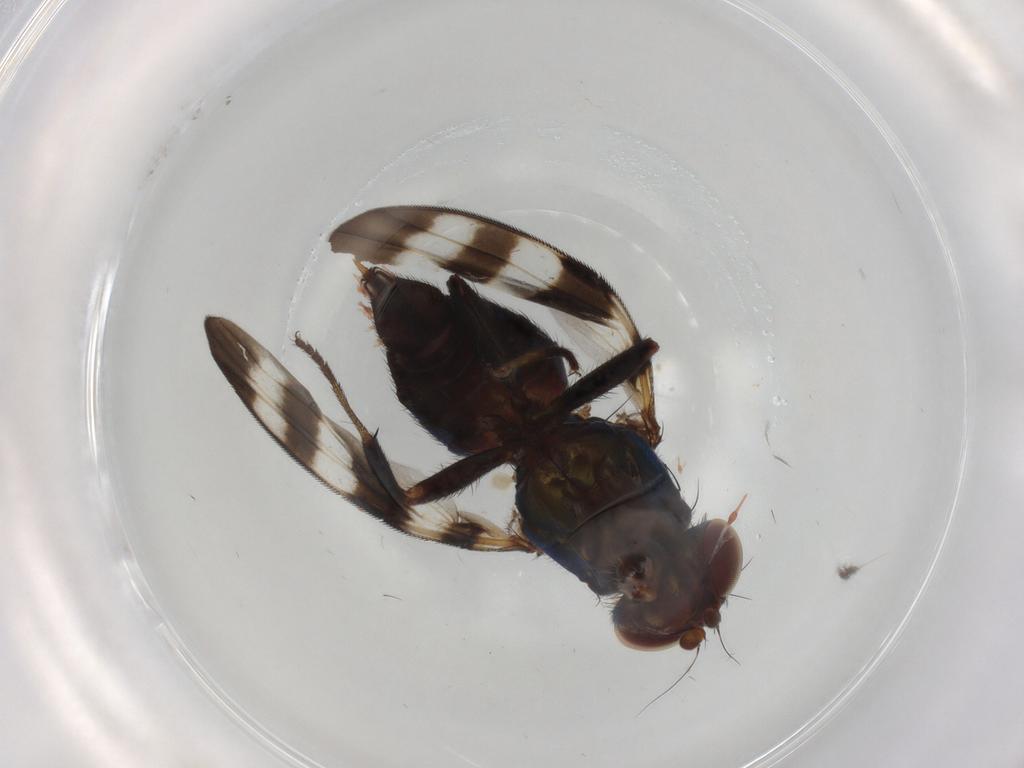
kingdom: Animalia
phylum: Arthropoda
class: Insecta
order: Diptera
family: Ulidiidae
